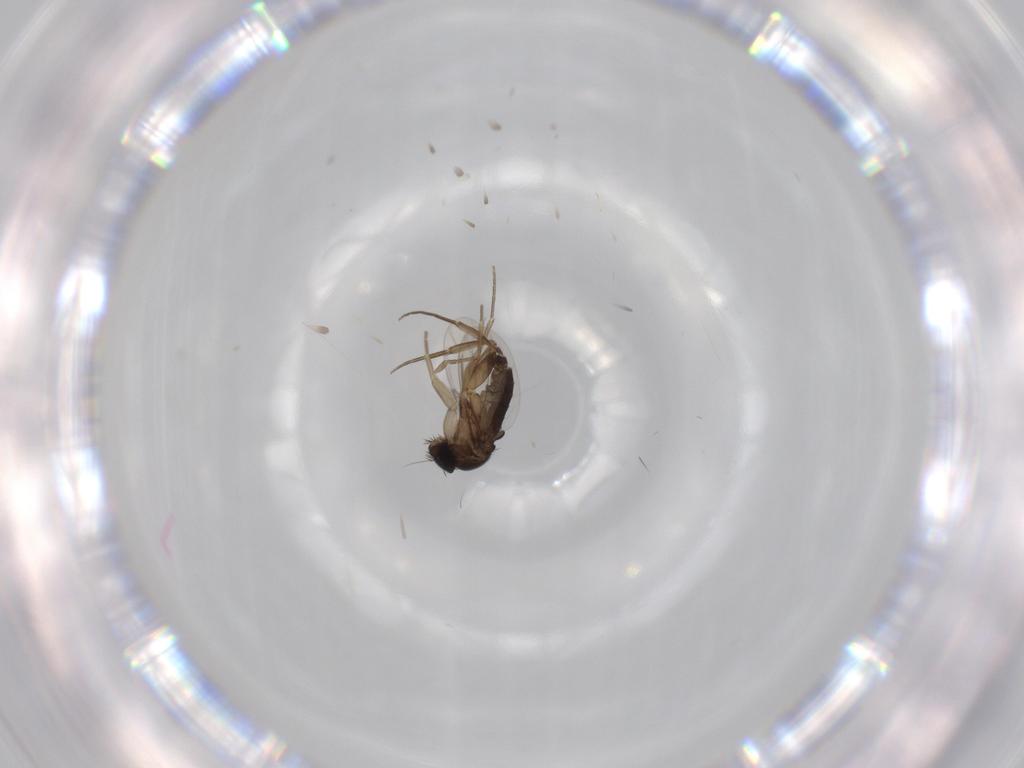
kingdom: Animalia
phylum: Arthropoda
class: Insecta
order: Diptera
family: Phoridae
